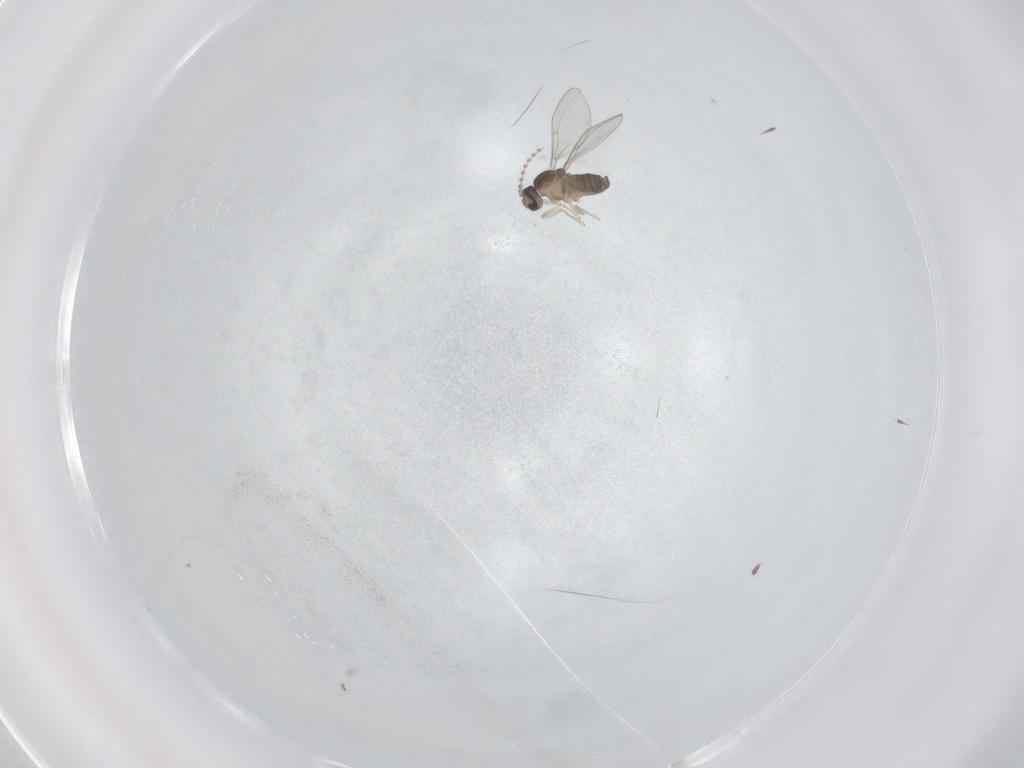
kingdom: Animalia
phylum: Arthropoda
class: Insecta
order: Diptera
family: Cecidomyiidae
